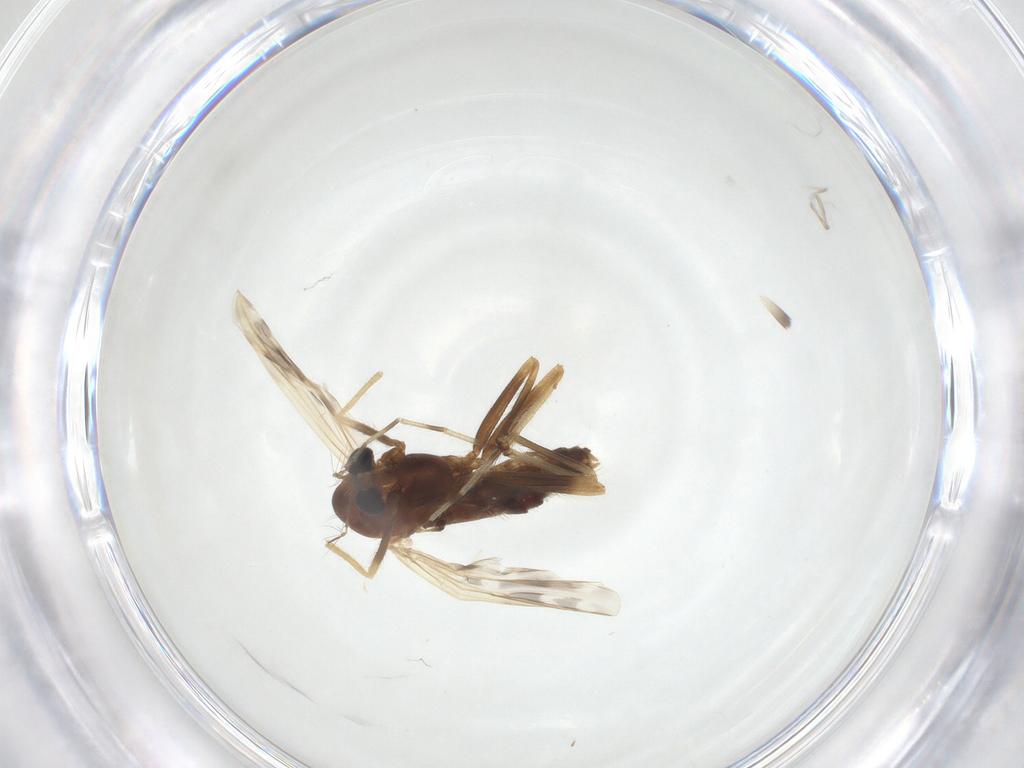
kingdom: Animalia
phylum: Arthropoda
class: Insecta
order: Diptera
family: Chironomidae
